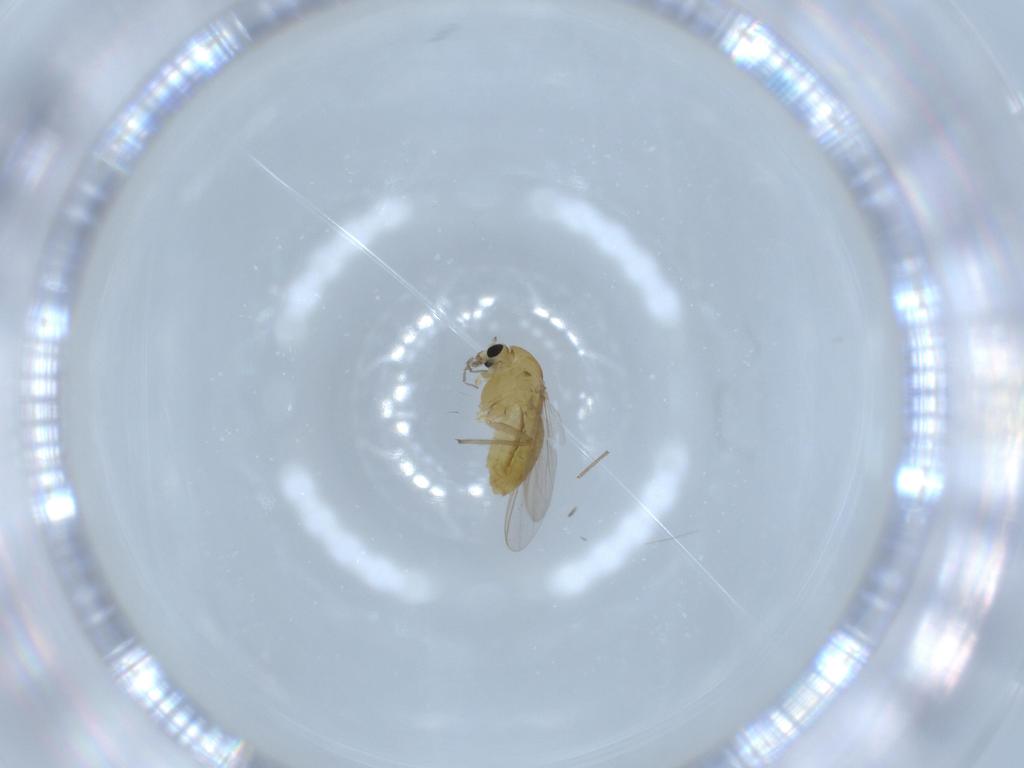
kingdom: Animalia
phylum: Arthropoda
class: Insecta
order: Diptera
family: Chironomidae
